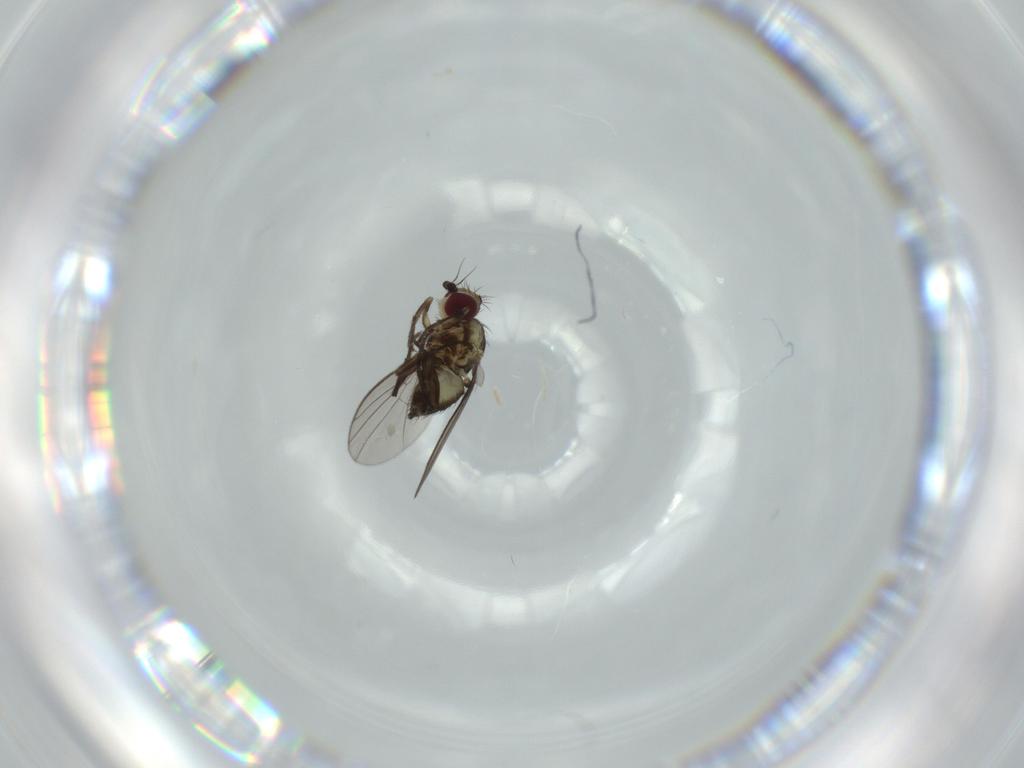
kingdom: Animalia
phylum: Arthropoda
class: Insecta
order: Diptera
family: Agromyzidae
